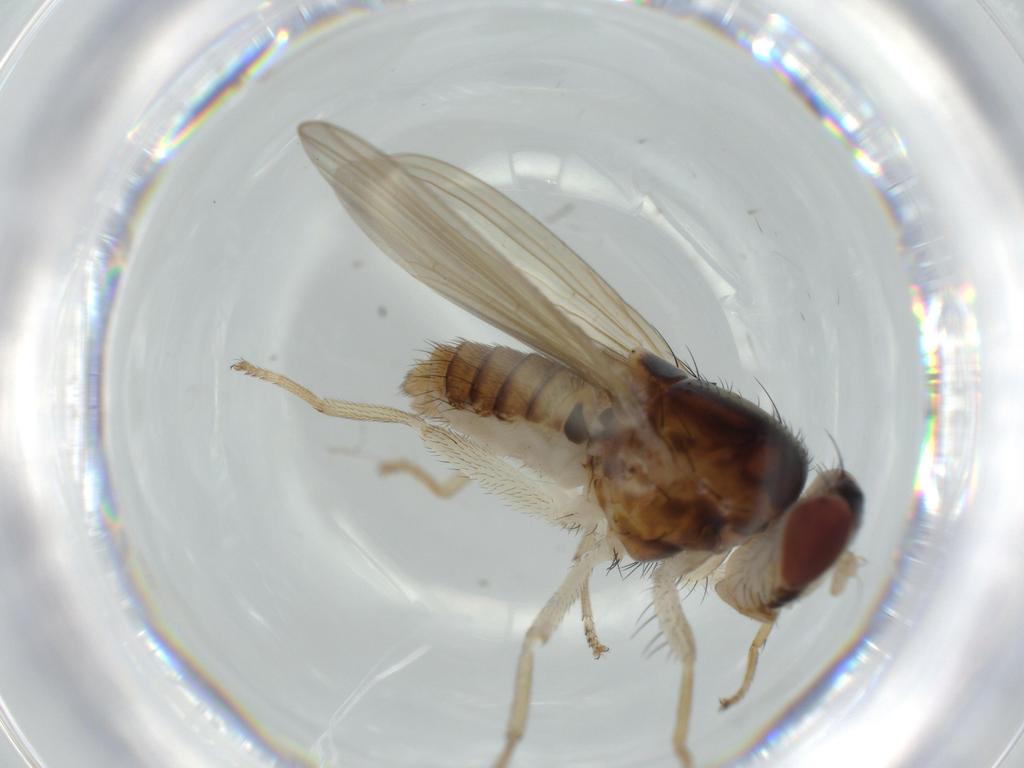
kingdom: Animalia
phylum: Arthropoda
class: Insecta
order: Diptera
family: Lauxaniidae
